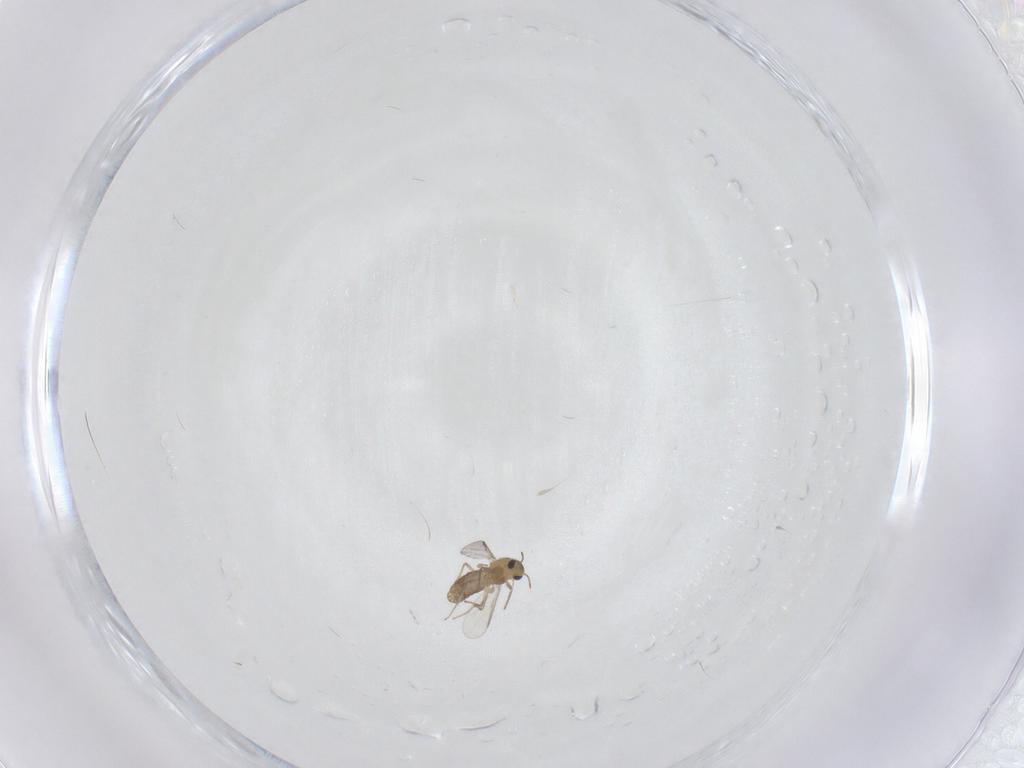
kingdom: Animalia
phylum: Arthropoda
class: Insecta
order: Diptera
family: Chironomidae
